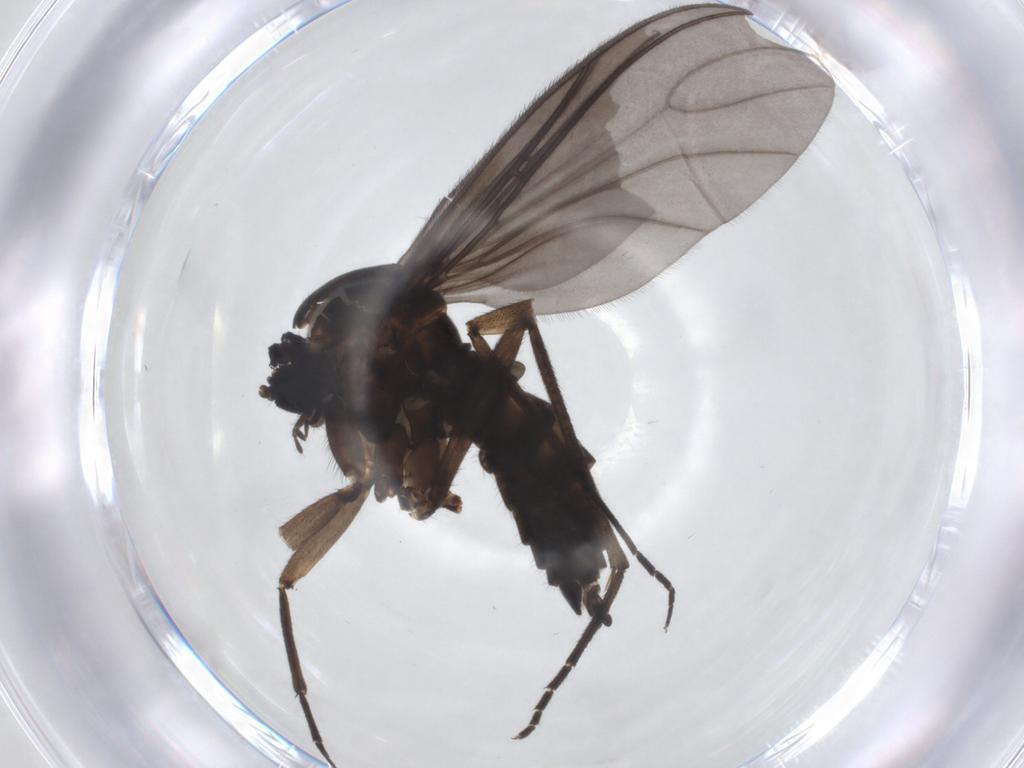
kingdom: Animalia
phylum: Arthropoda
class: Insecta
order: Diptera
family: Sciaridae
